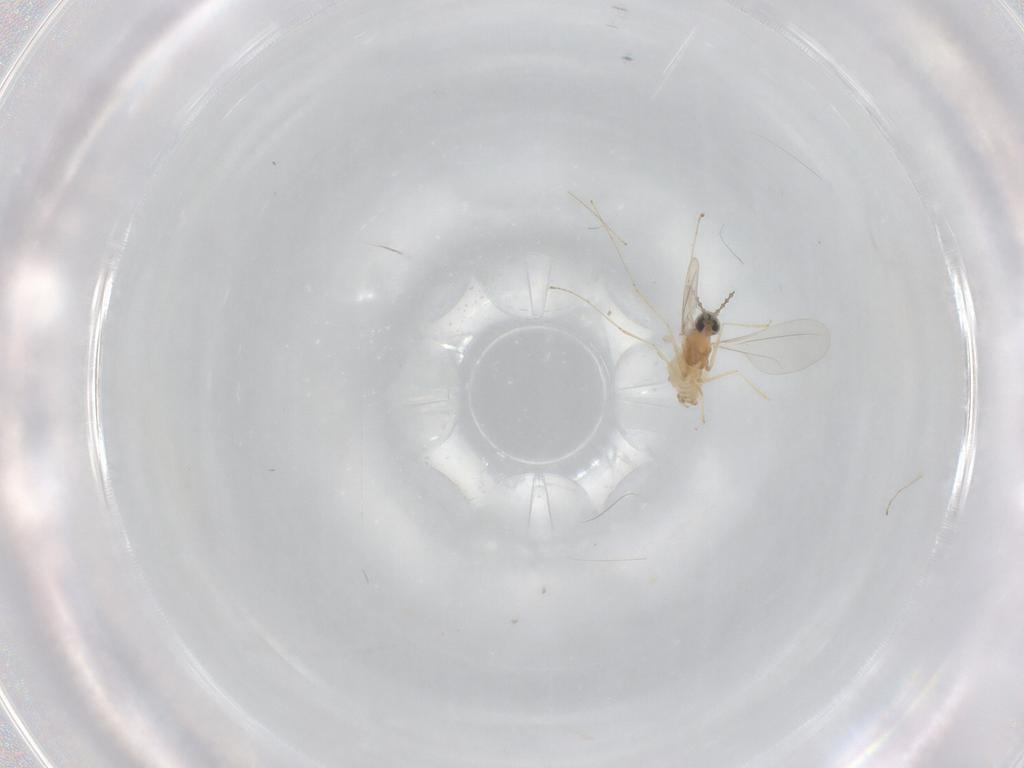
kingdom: Animalia
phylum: Arthropoda
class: Insecta
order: Diptera
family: Cecidomyiidae
